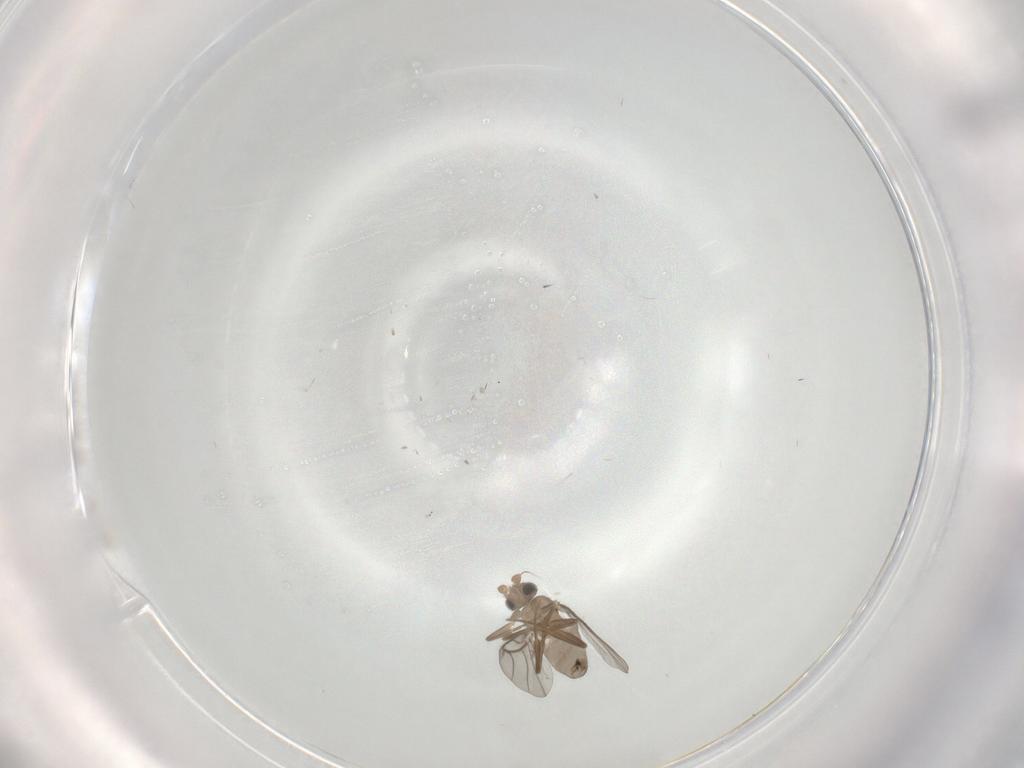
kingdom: Animalia
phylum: Arthropoda
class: Insecta
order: Diptera
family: Phoridae
